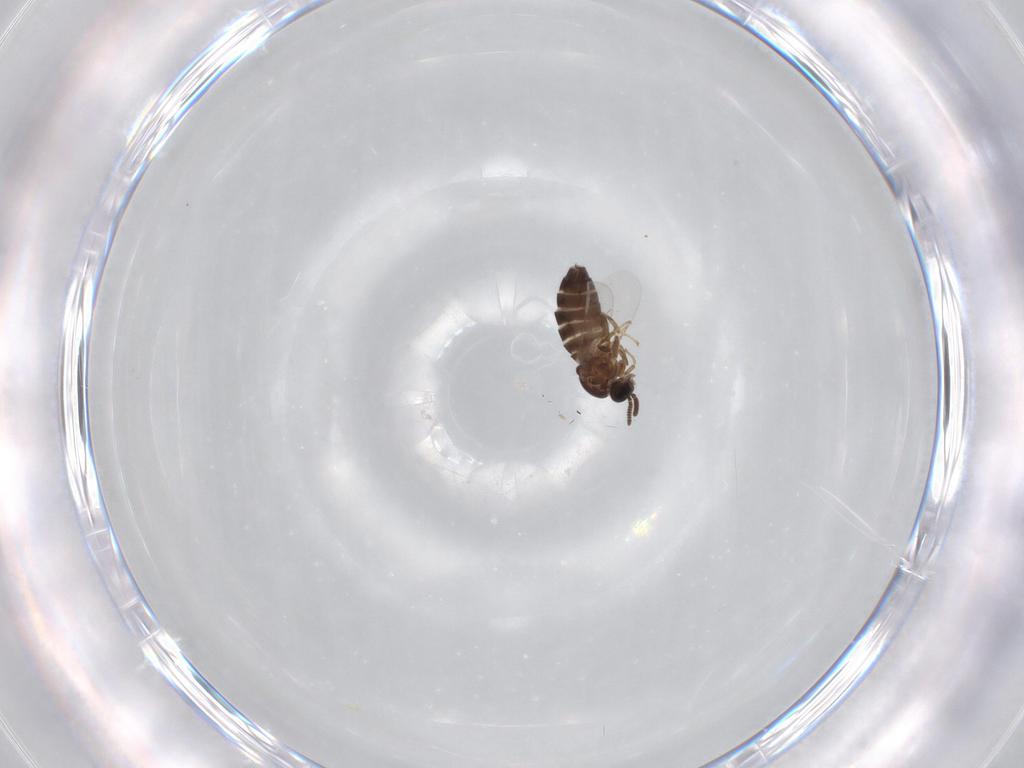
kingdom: Animalia
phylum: Arthropoda
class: Insecta
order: Diptera
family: Scatopsidae
